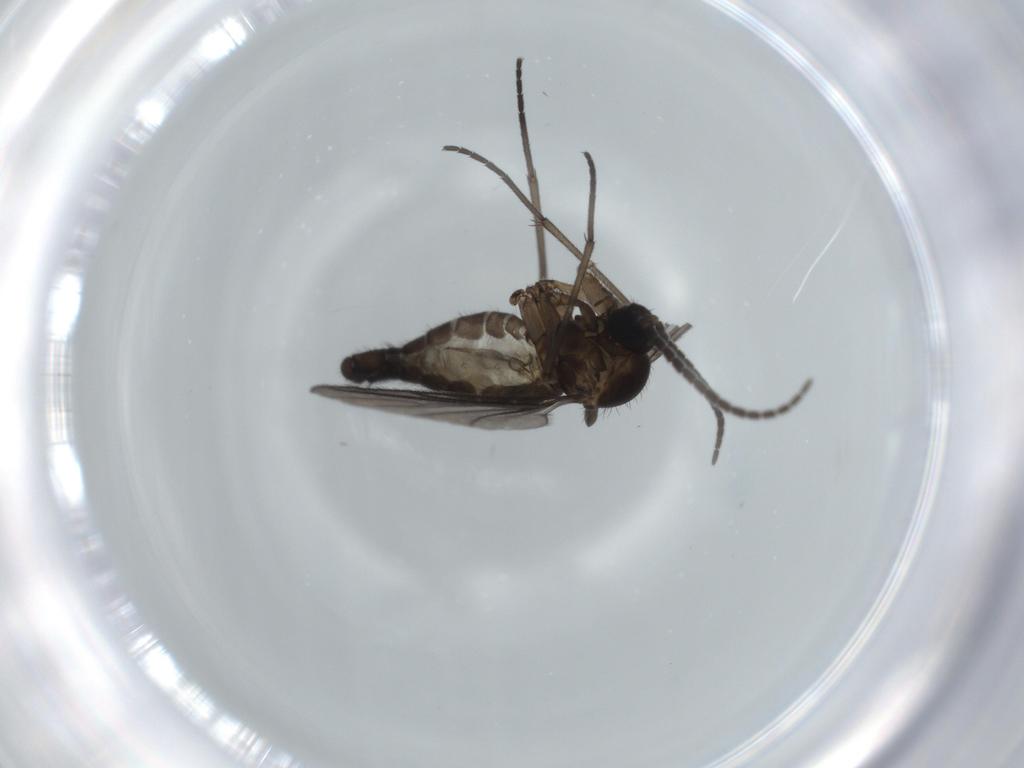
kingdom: Animalia
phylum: Arthropoda
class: Insecta
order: Diptera
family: Sciaridae
